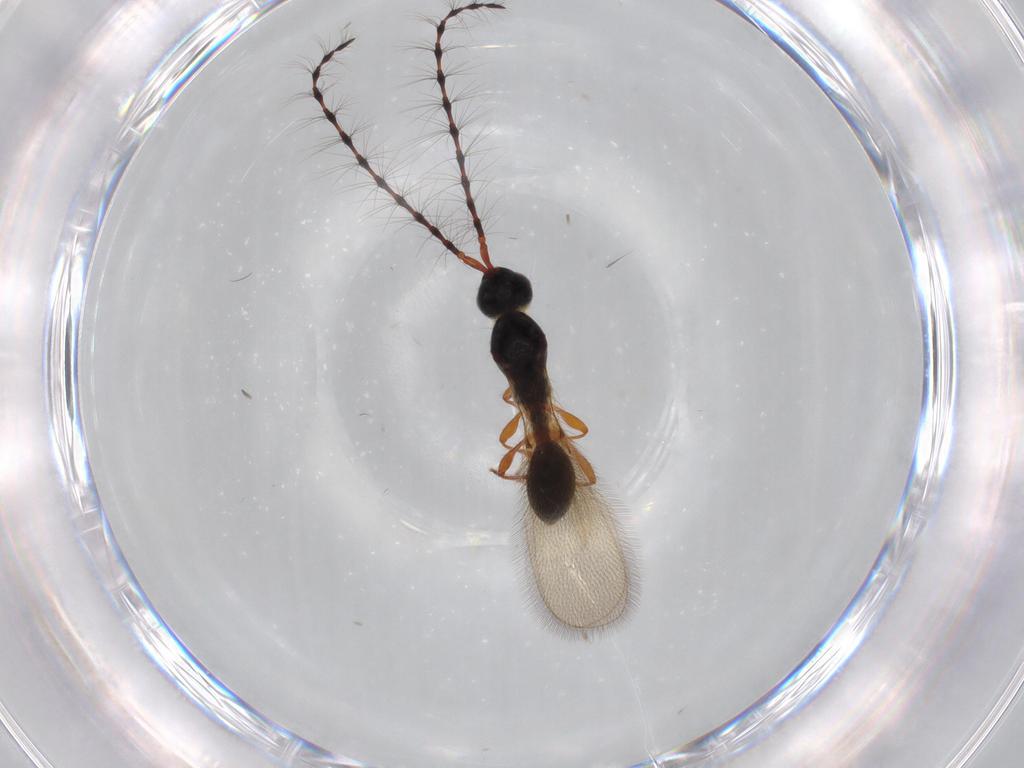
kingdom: Animalia
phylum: Arthropoda
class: Insecta
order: Hymenoptera
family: Diapriidae
